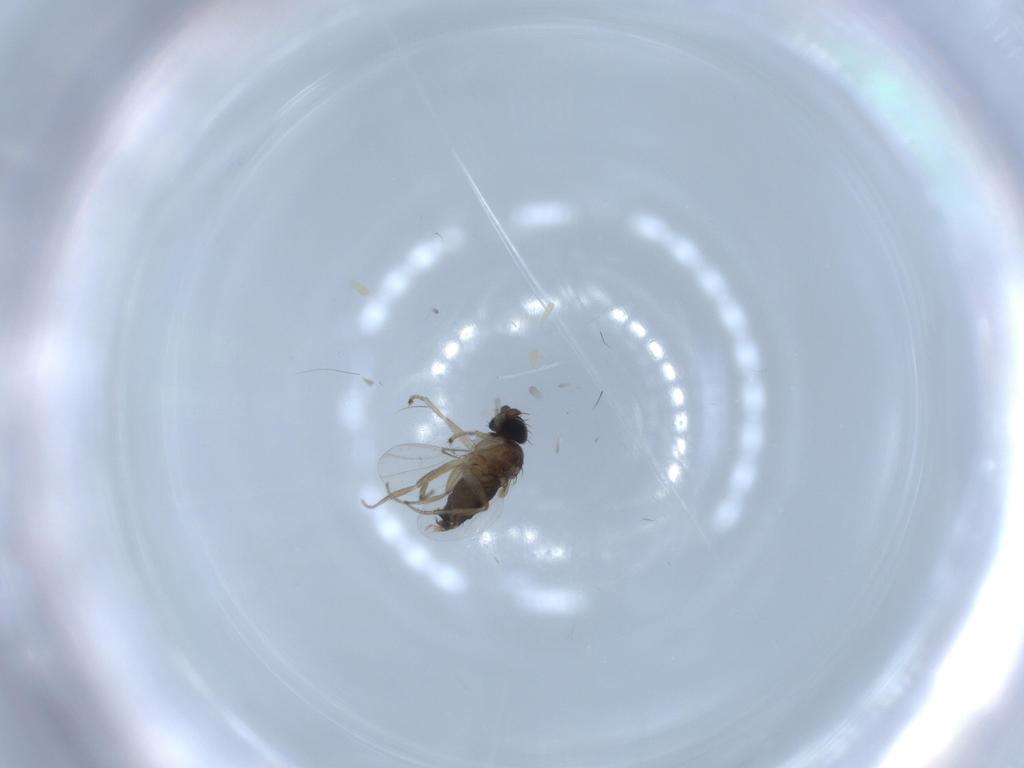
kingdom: Animalia
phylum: Arthropoda
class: Insecta
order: Diptera
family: Phoridae
